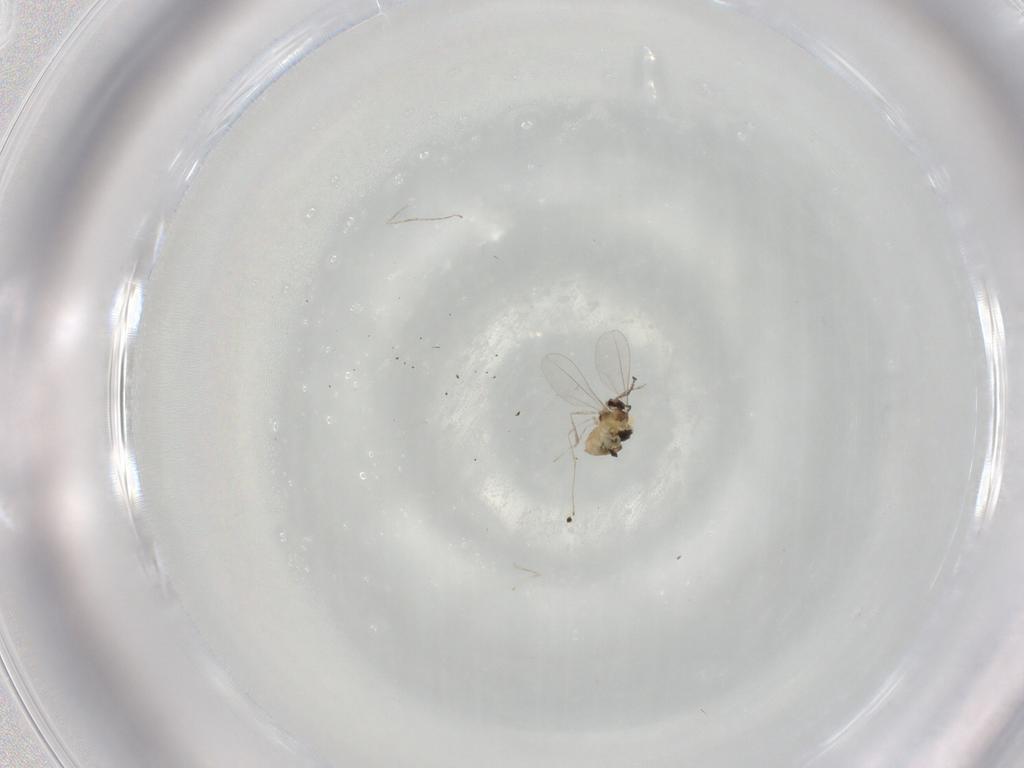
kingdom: Animalia
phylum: Arthropoda
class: Insecta
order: Diptera
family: Cecidomyiidae
